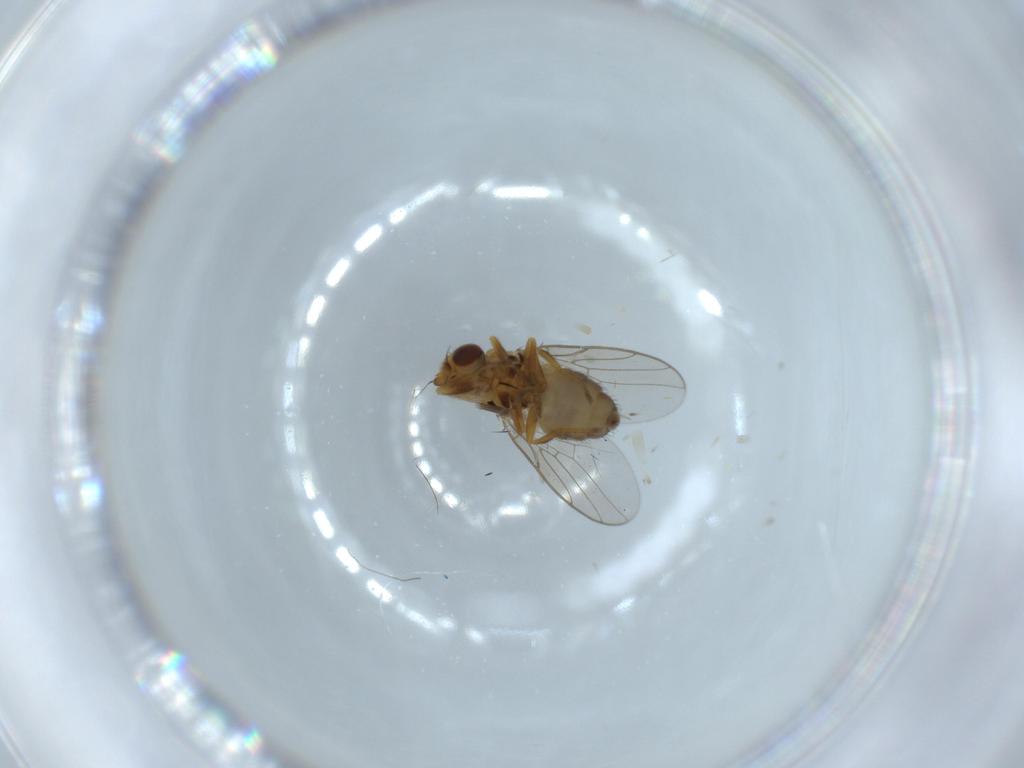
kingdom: Animalia
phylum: Arthropoda
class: Insecta
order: Diptera
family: Chloropidae
